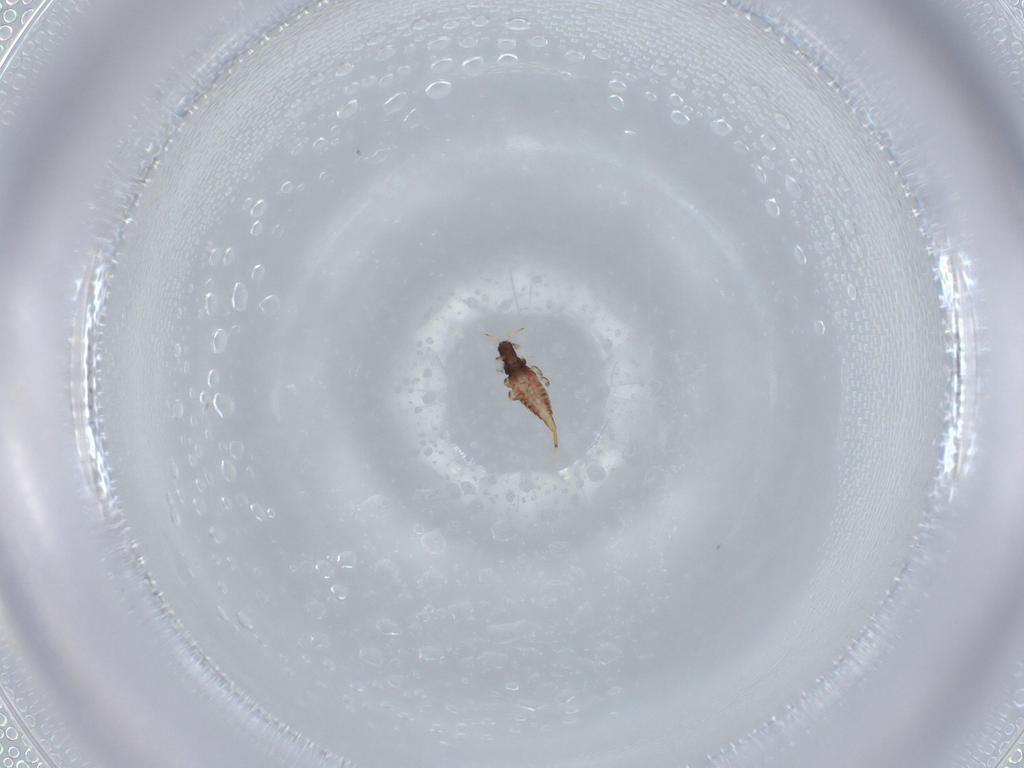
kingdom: Animalia
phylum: Arthropoda
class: Insecta
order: Thysanoptera
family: Phlaeothripidae
